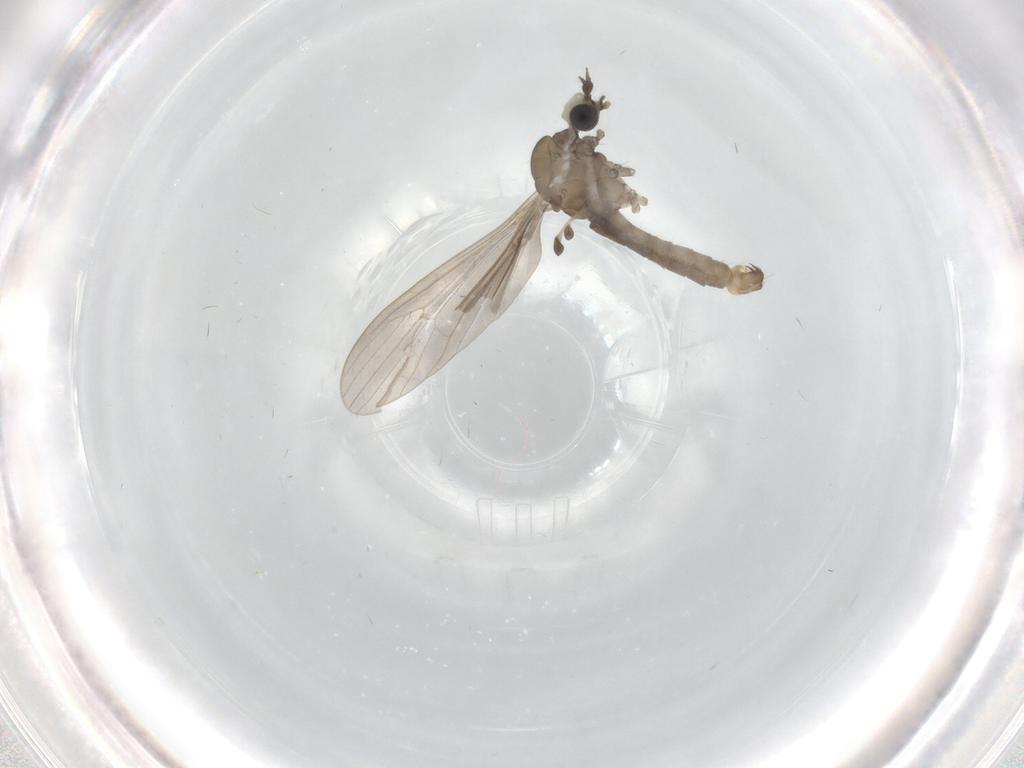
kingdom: Animalia
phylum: Arthropoda
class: Insecta
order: Diptera
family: Limoniidae
